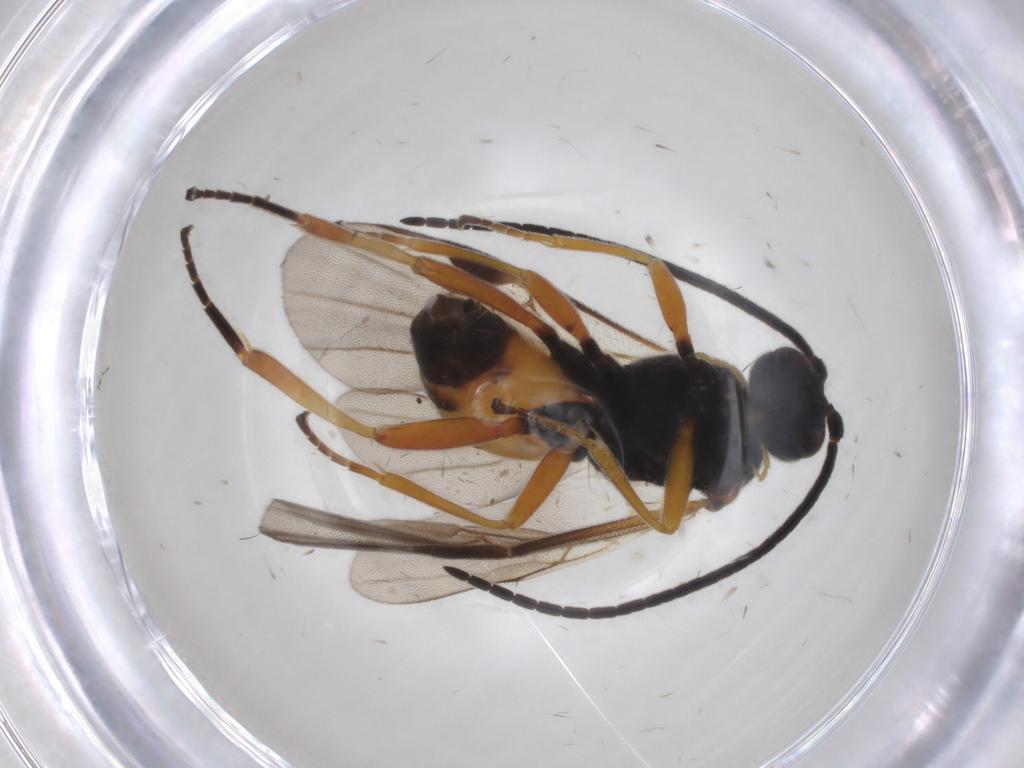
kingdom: Animalia
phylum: Arthropoda
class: Insecta
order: Hymenoptera
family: Braconidae
